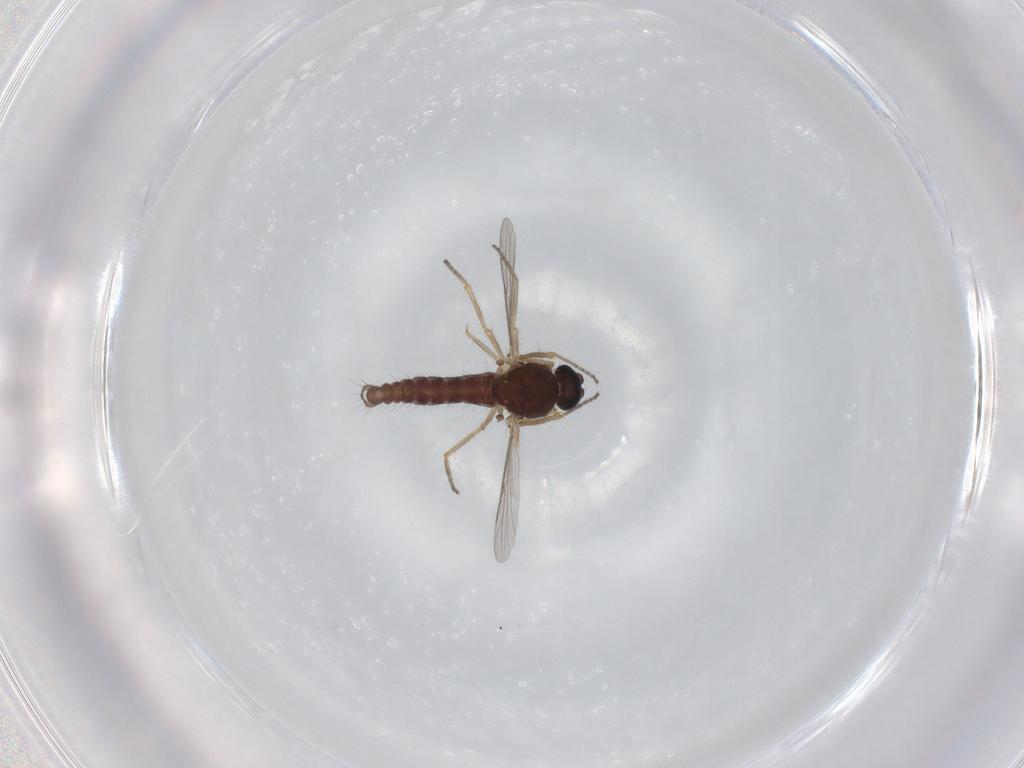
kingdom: Animalia
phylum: Arthropoda
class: Insecta
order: Diptera
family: Ceratopogonidae
